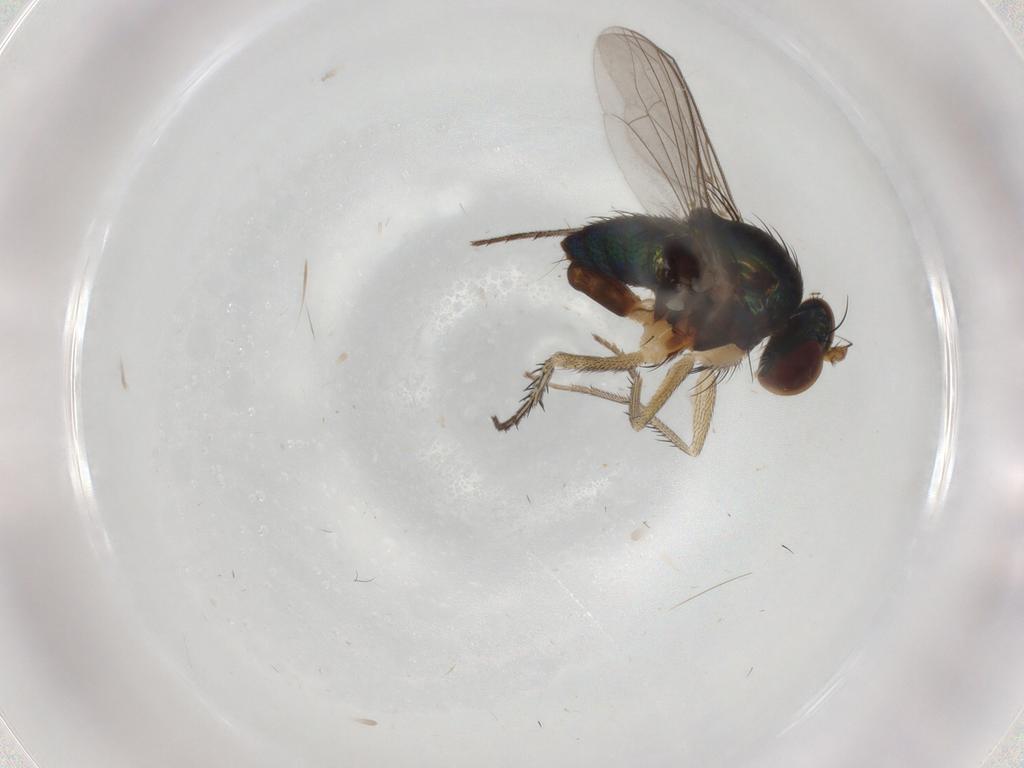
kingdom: Animalia
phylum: Arthropoda
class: Insecta
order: Diptera
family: Dolichopodidae
